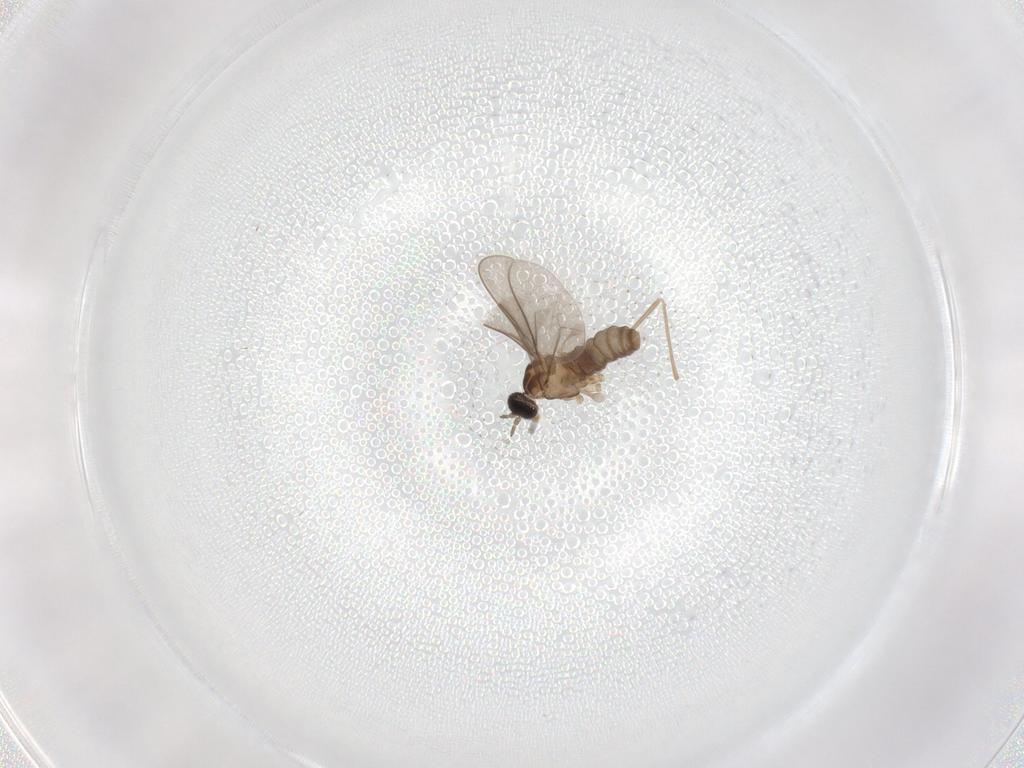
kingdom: Animalia
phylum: Arthropoda
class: Insecta
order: Diptera
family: Cecidomyiidae
